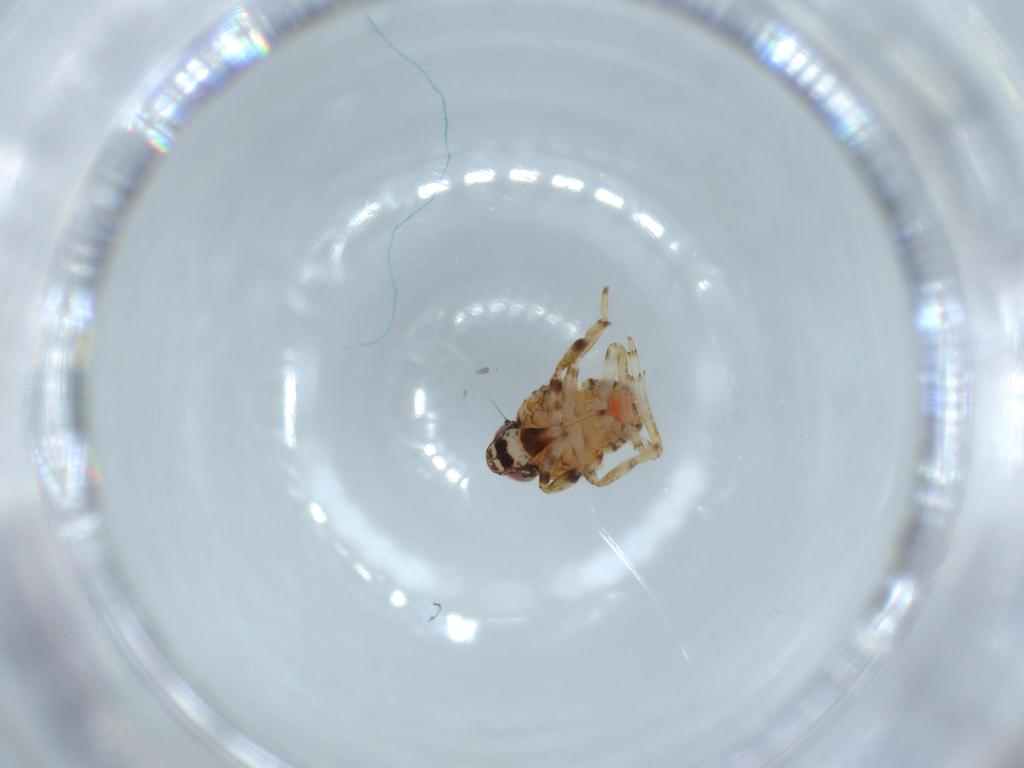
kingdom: Animalia
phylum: Arthropoda
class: Insecta
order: Hemiptera
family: Issidae
